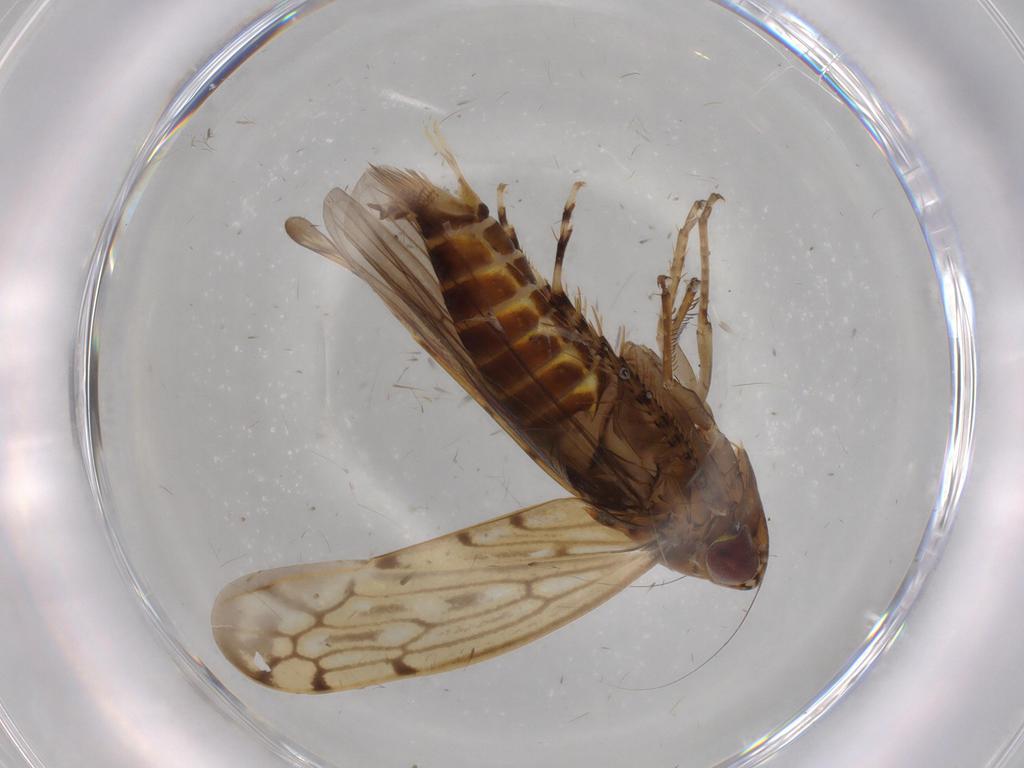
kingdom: Animalia
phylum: Arthropoda
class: Insecta
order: Hemiptera
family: Cicadellidae
